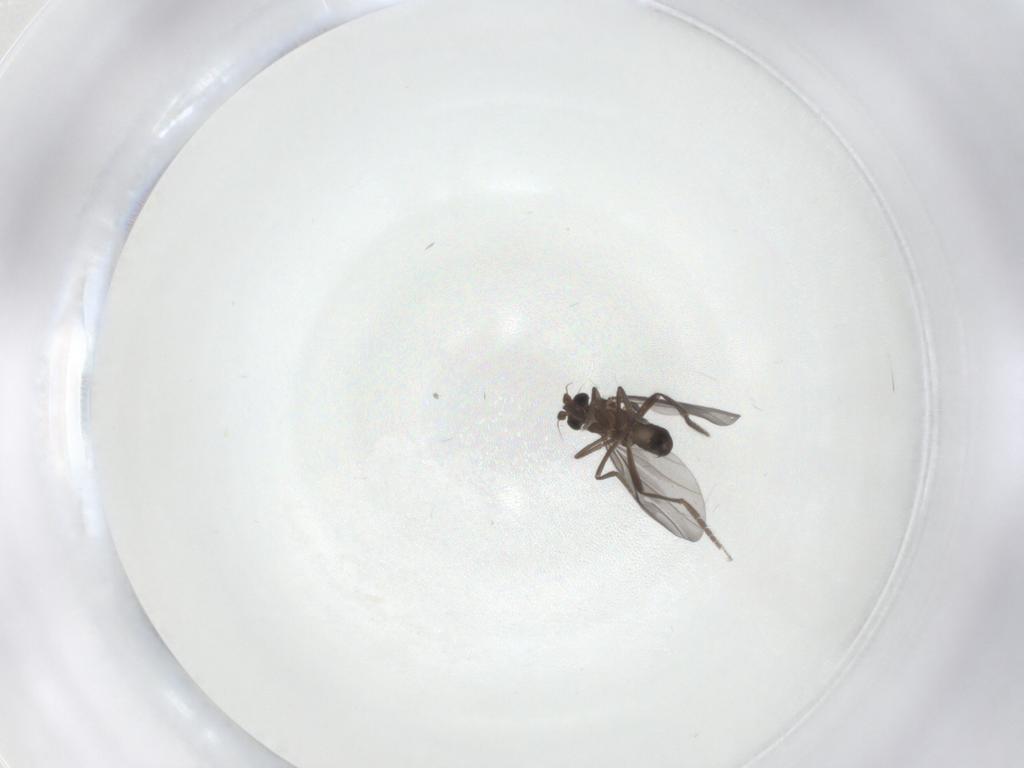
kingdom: Animalia
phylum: Arthropoda
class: Insecta
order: Diptera
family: Phoridae
